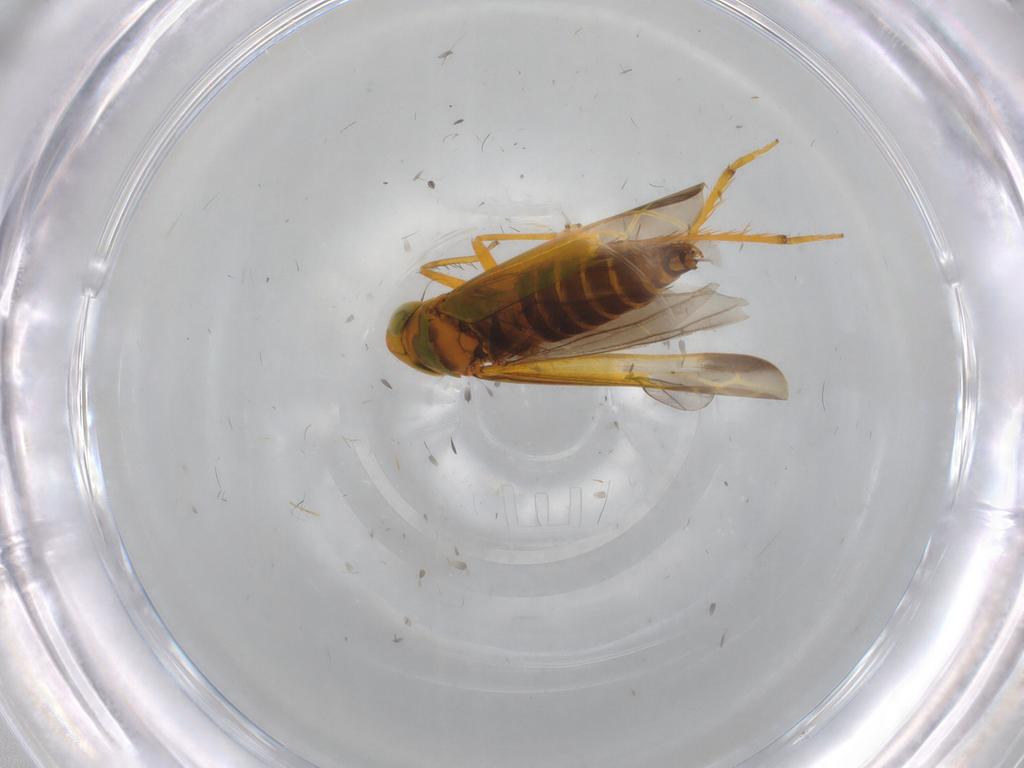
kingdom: Animalia
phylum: Arthropoda
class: Insecta
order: Hemiptera
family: Cicadellidae
